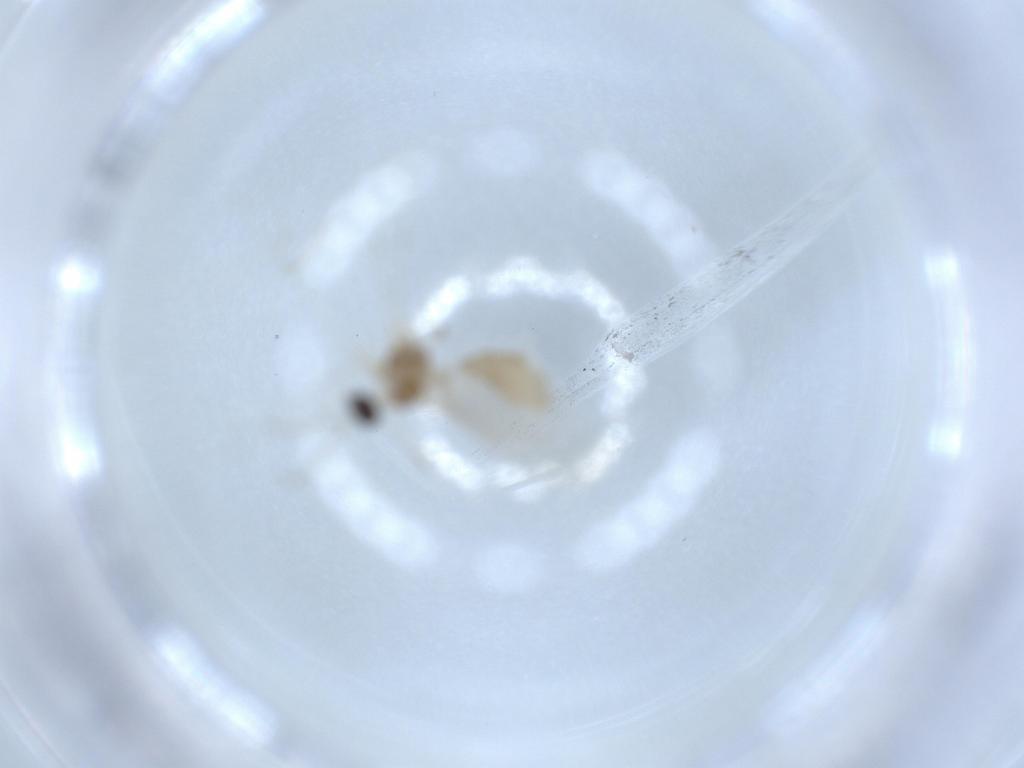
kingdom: Animalia
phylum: Arthropoda
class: Insecta
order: Diptera
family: Cecidomyiidae
